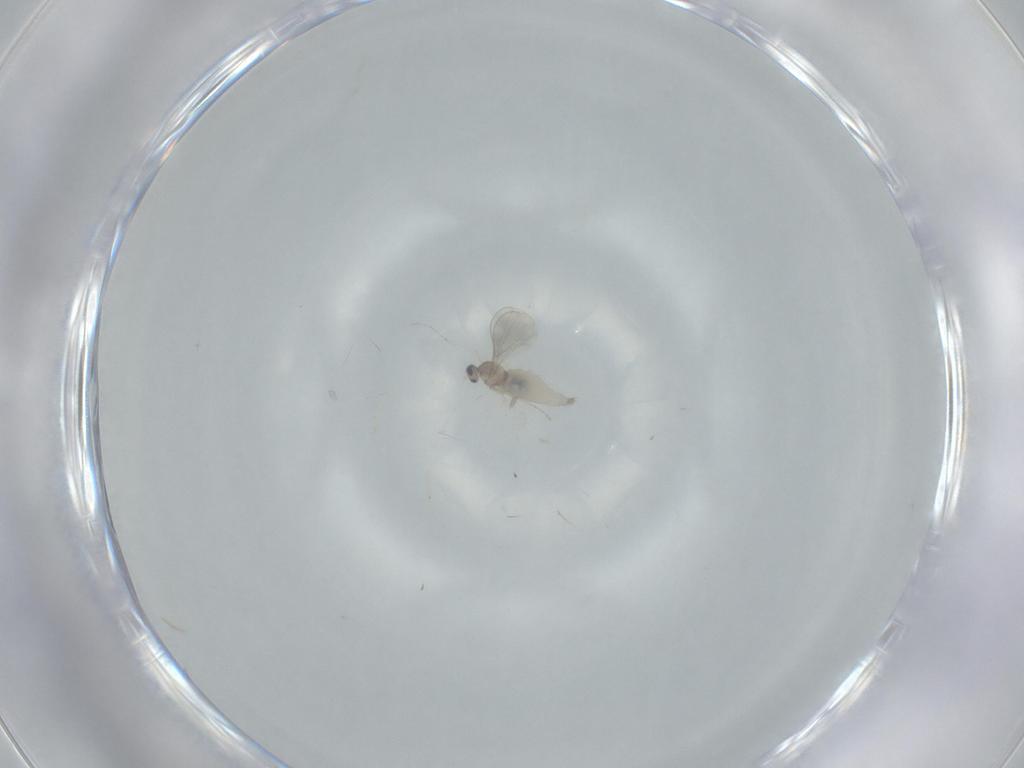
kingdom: Animalia
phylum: Arthropoda
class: Insecta
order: Diptera
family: Cecidomyiidae
